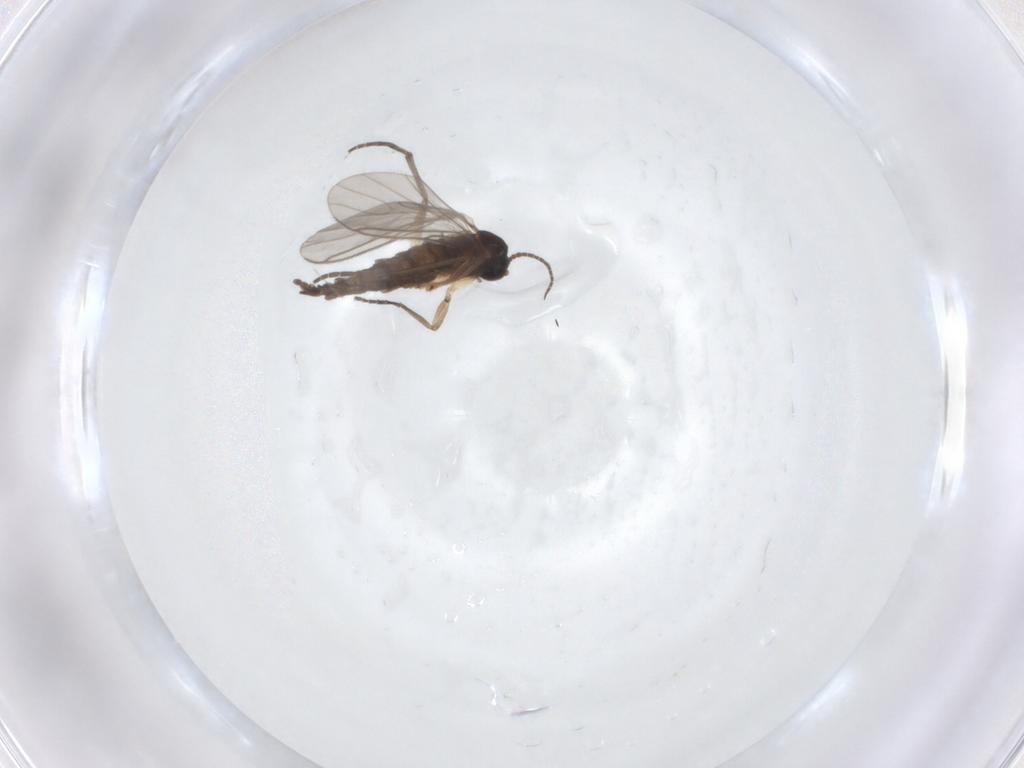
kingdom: Animalia
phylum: Arthropoda
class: Insecta
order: Diptera
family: Sciaridae
